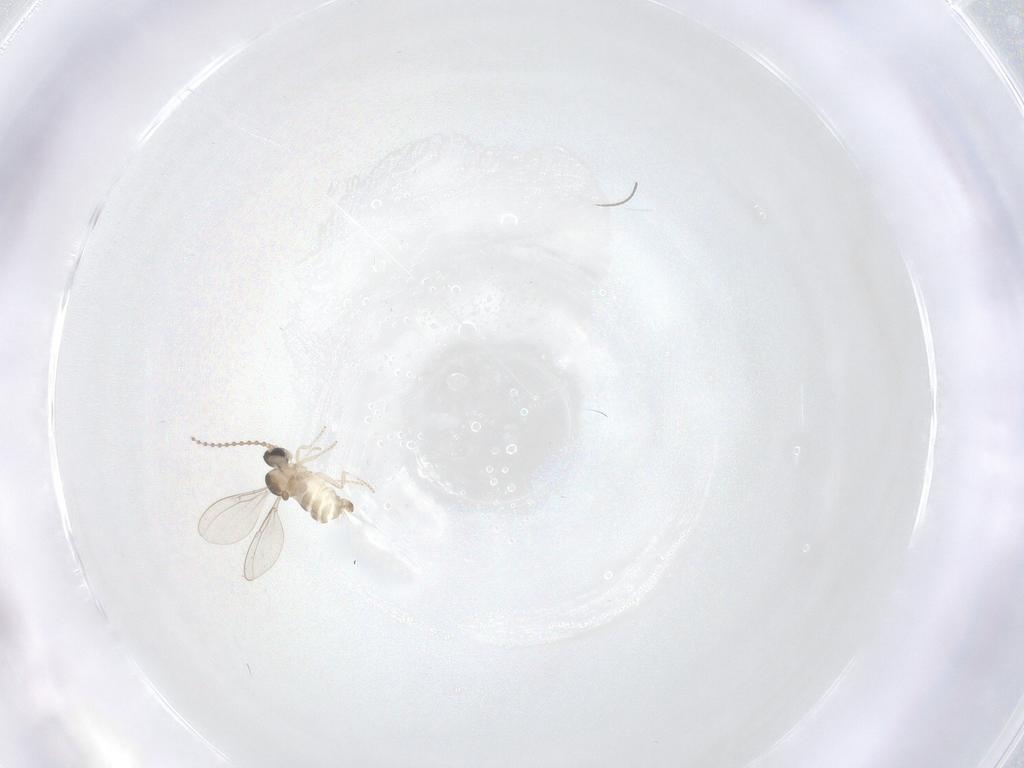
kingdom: Animalia
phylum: Arthropoda
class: Insecta
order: Diptera
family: Cecidomyiidae
